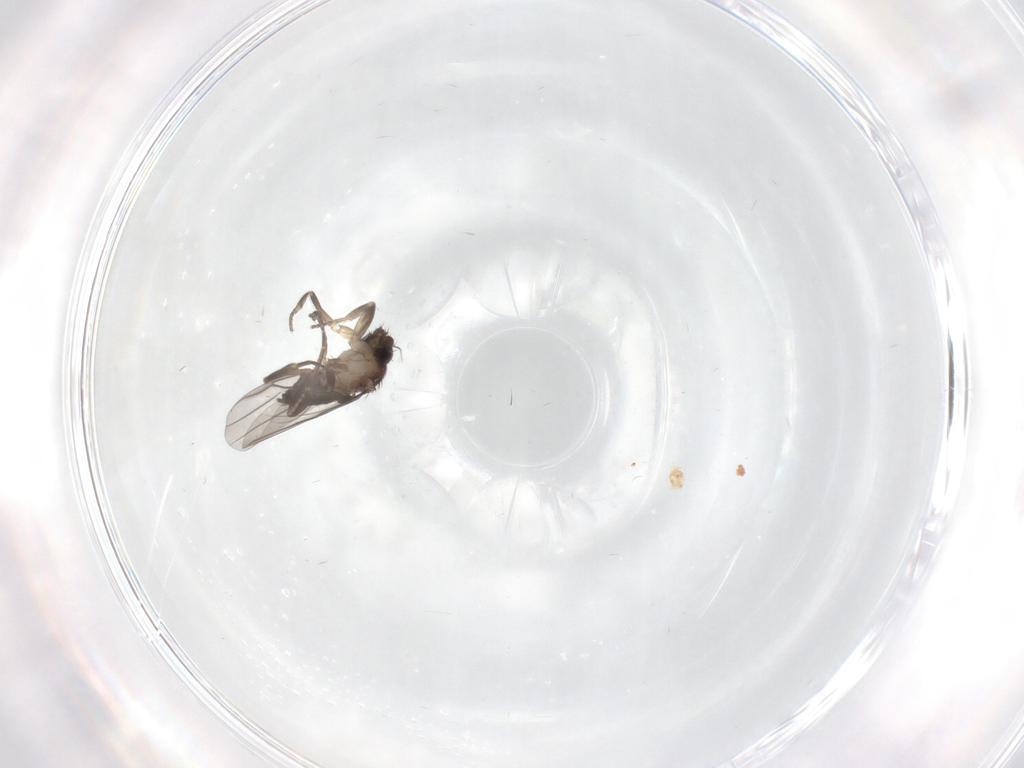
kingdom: Animalia
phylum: Arthropoda
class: Insecta
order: Diptera
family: Phoridae
